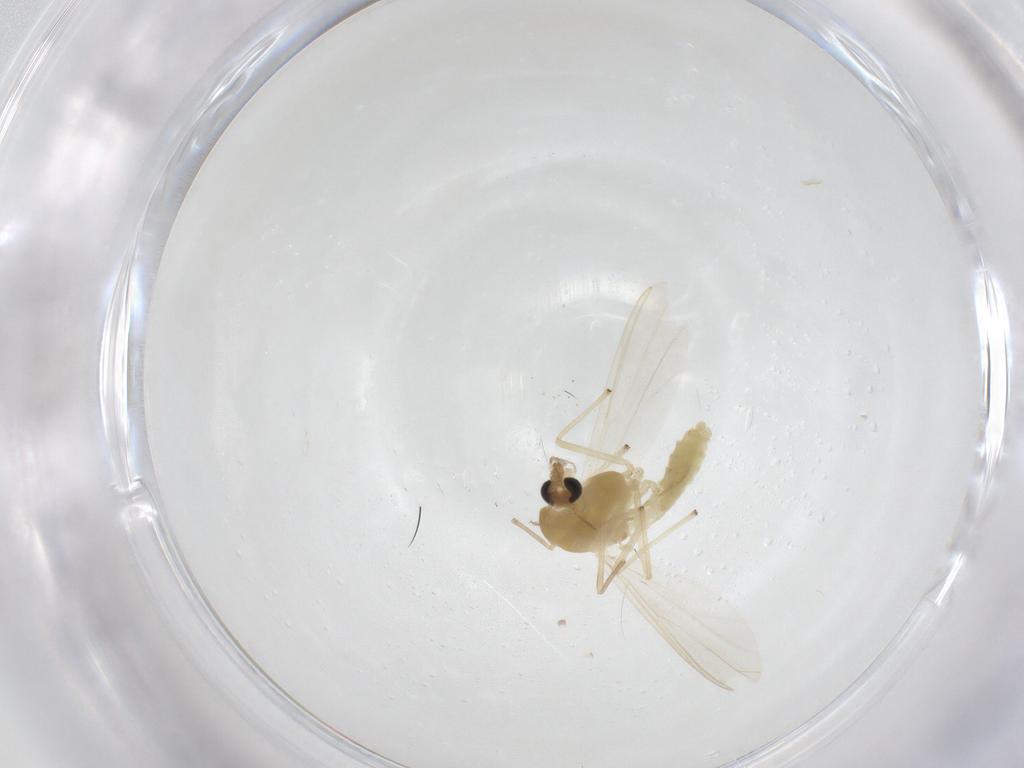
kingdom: Animalia
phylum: Arthropoda
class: Insecta
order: Diptera
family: Chironomidae
